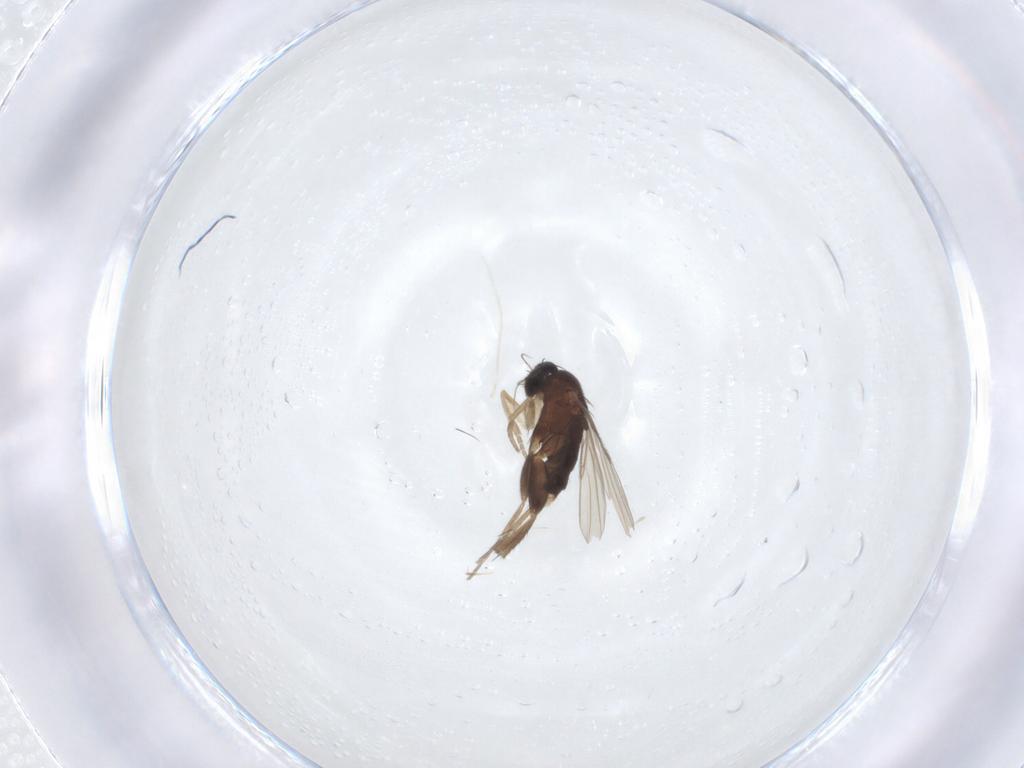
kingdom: Animalia
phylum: Arthropoda
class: Insecta
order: Diptera
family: Phoridae
